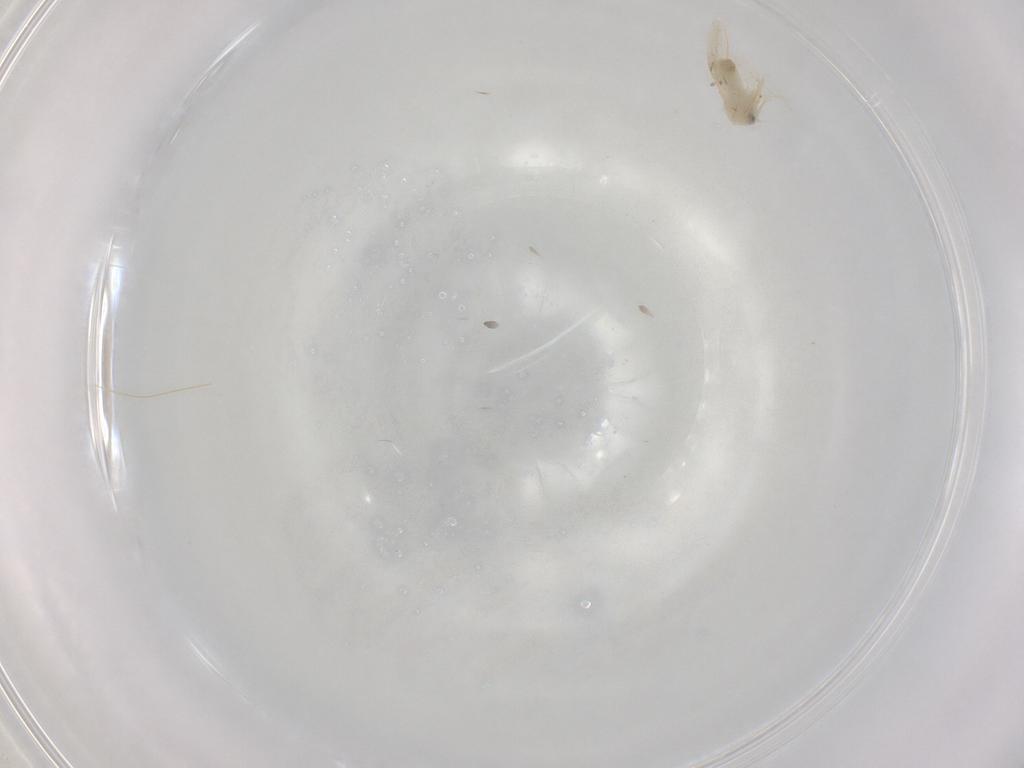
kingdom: Animalia
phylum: Arthropoda
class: Insecta
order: Hemiptera
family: Aleyrodidae
